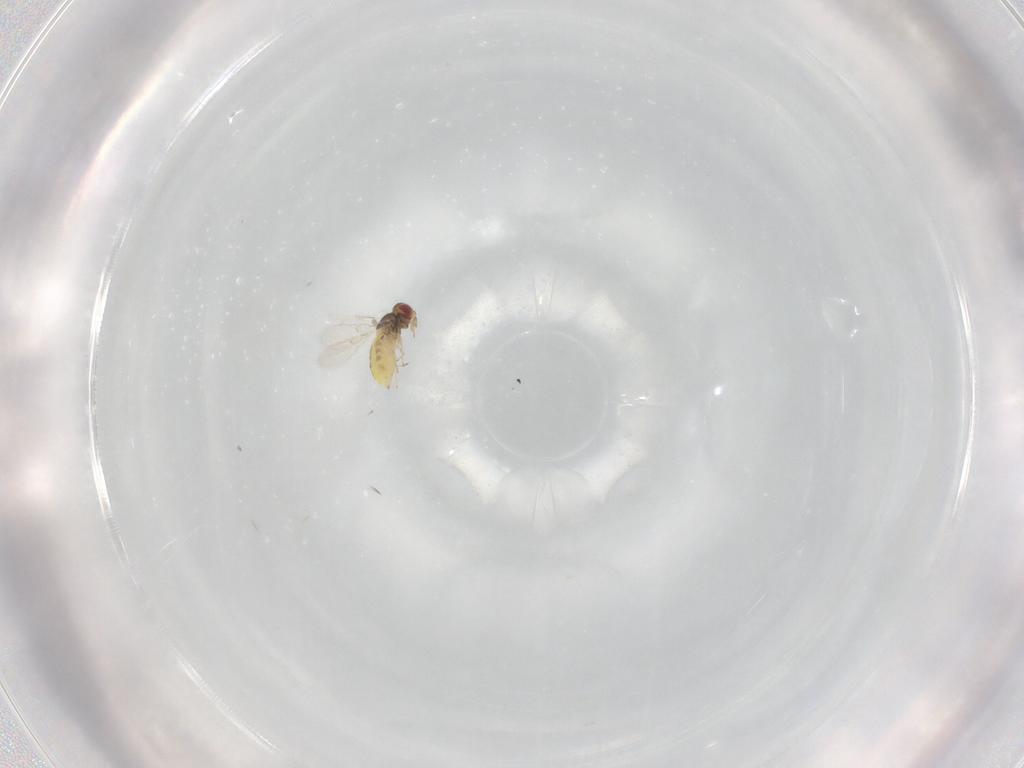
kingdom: Animalia
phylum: Arthropoda
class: Insecta
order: Hymenoptera
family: Trichogrammatidae
